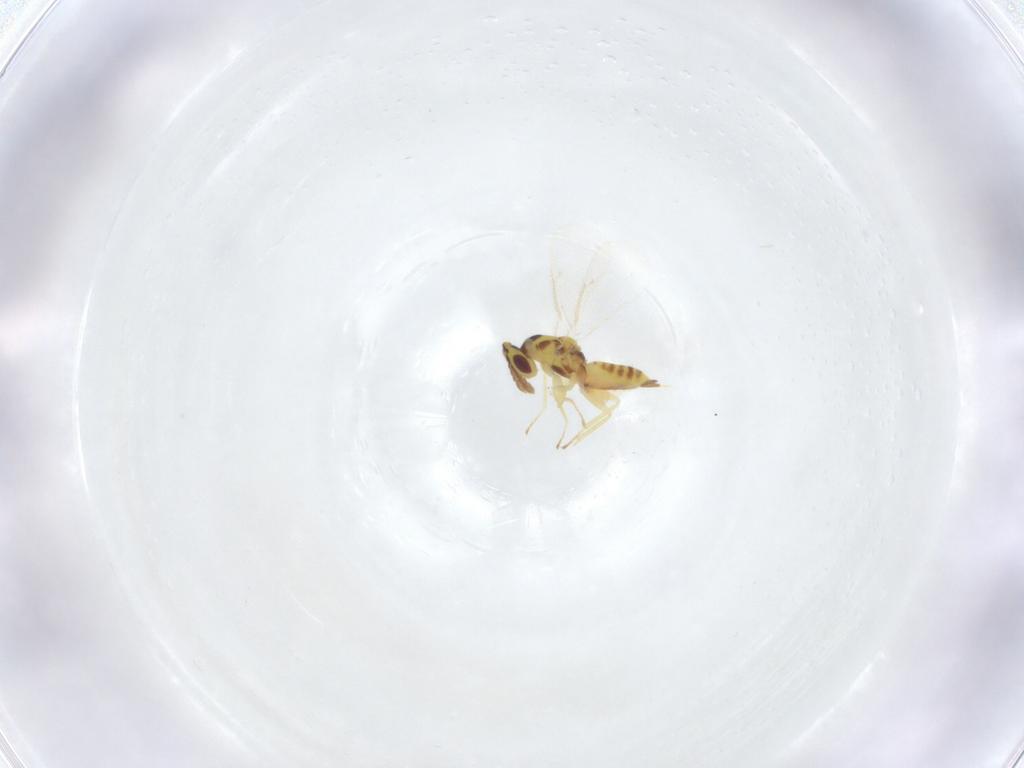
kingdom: Animalia
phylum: Arthropoda
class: Insecta
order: Hymenoptera
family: Eulophidae
